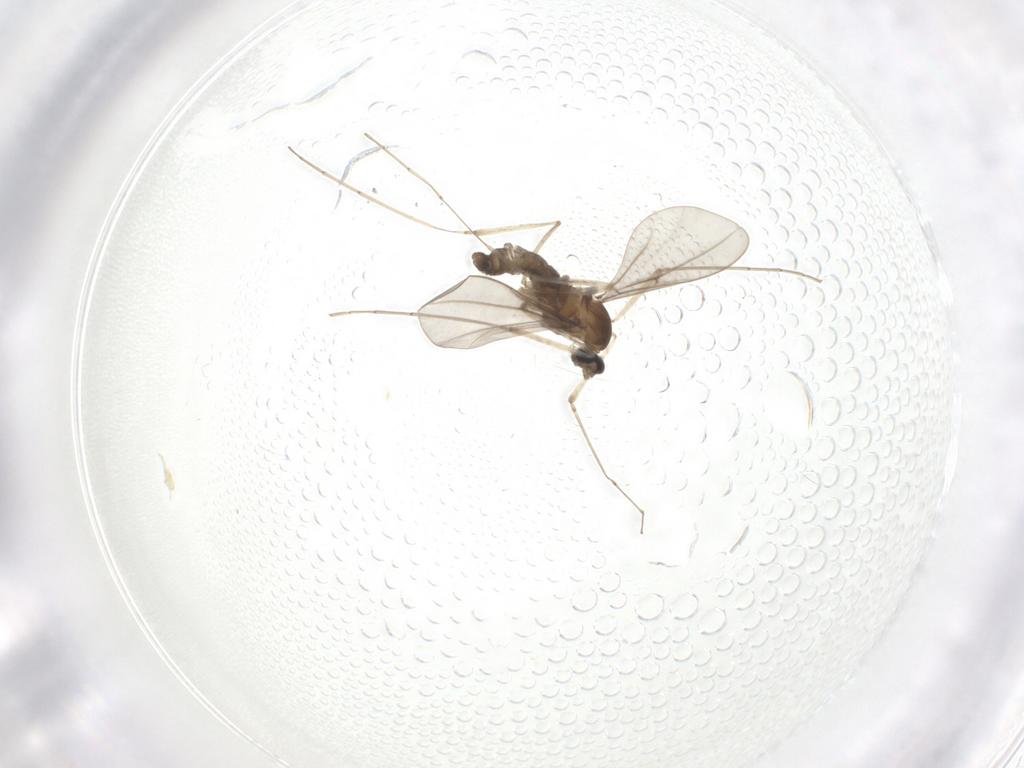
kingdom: Animalia
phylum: Arthropoda
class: Insecta
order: Diptera
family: Cecidomyiidae
